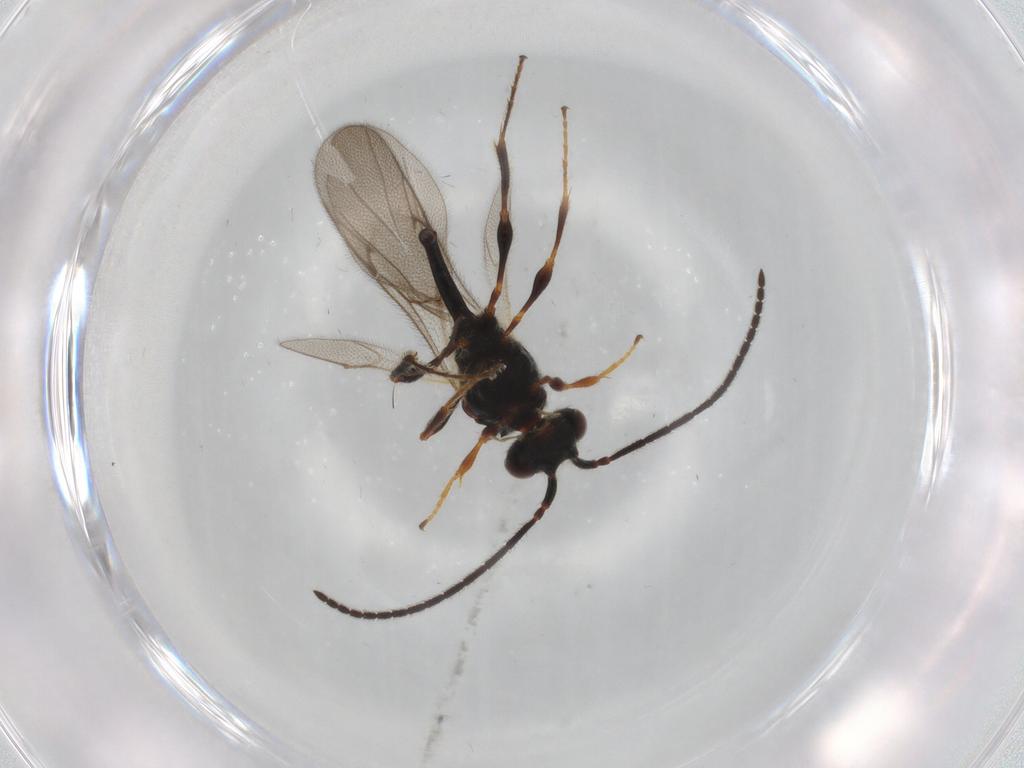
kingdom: Animalia
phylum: Arthropoda
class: Insecta
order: Hymenoptera
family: Diapriidae
